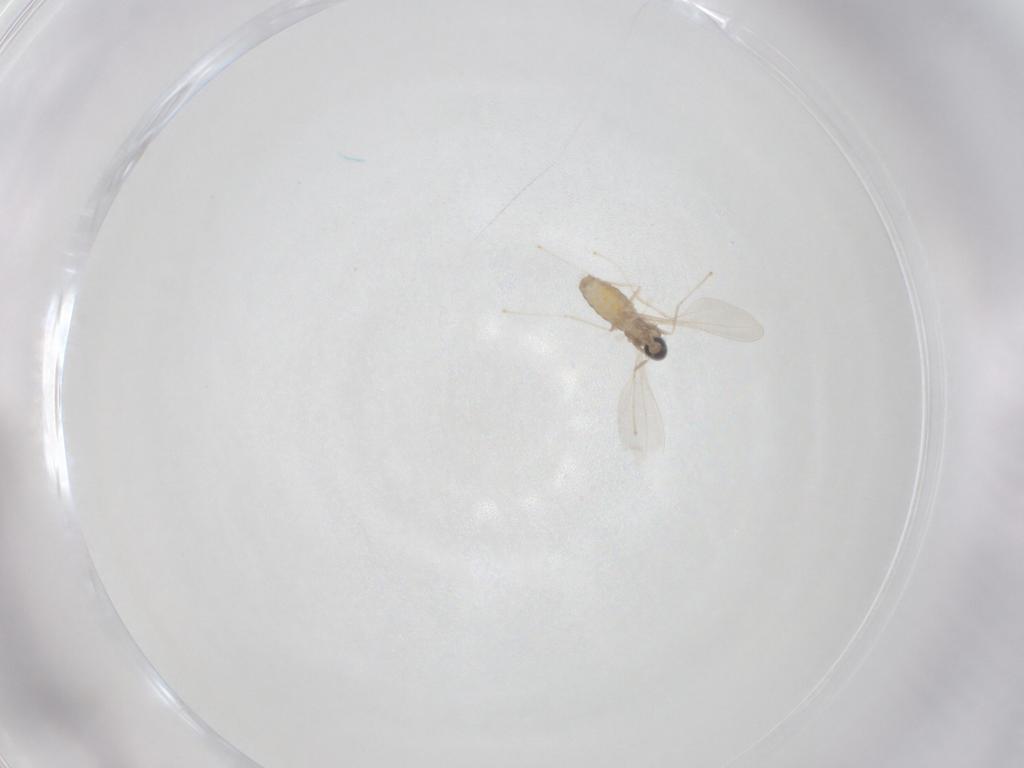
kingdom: Animalia
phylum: Arthropoda
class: Insecta
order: Diptera
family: Cecidomyiidae
